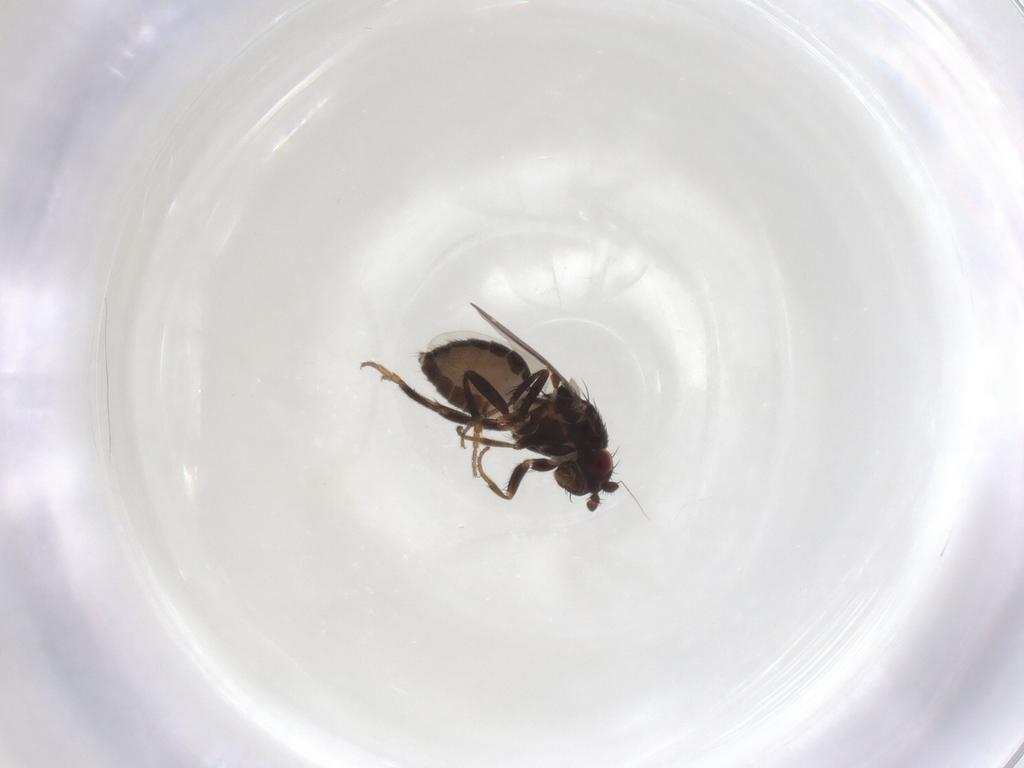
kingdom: Animalia
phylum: Arthropoda
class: Insecta
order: Diptera
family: Sphaeroceridae
